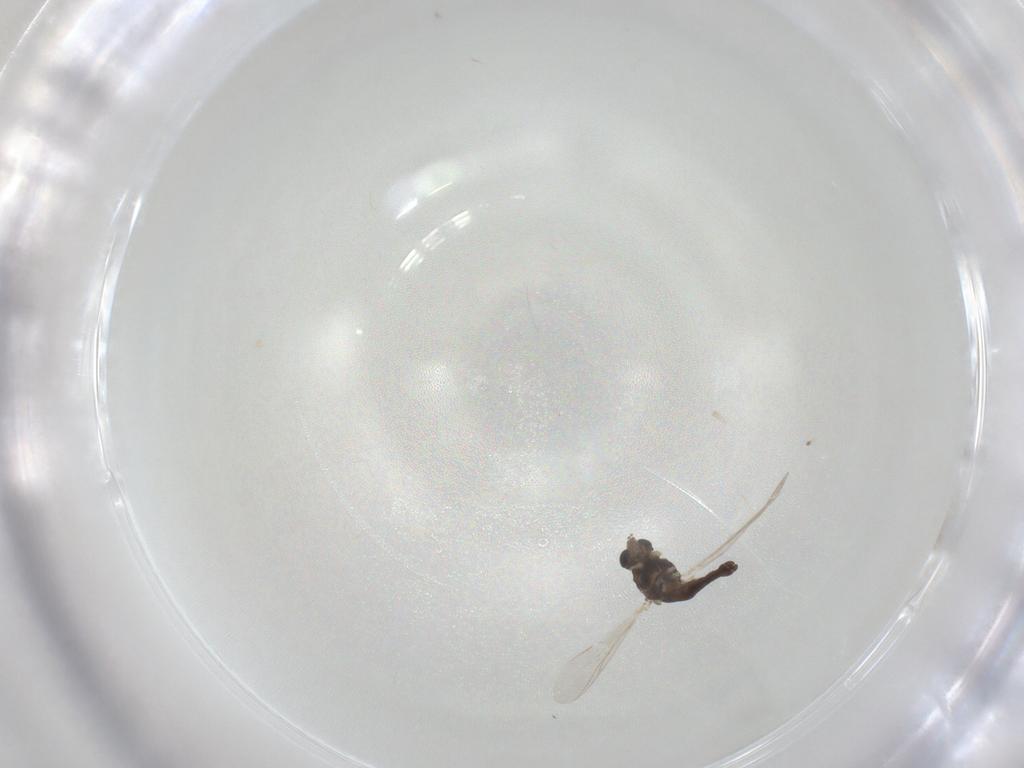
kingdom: Animalia
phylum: Arthropoda
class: Insecta
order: Diptera
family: Chironomidae
